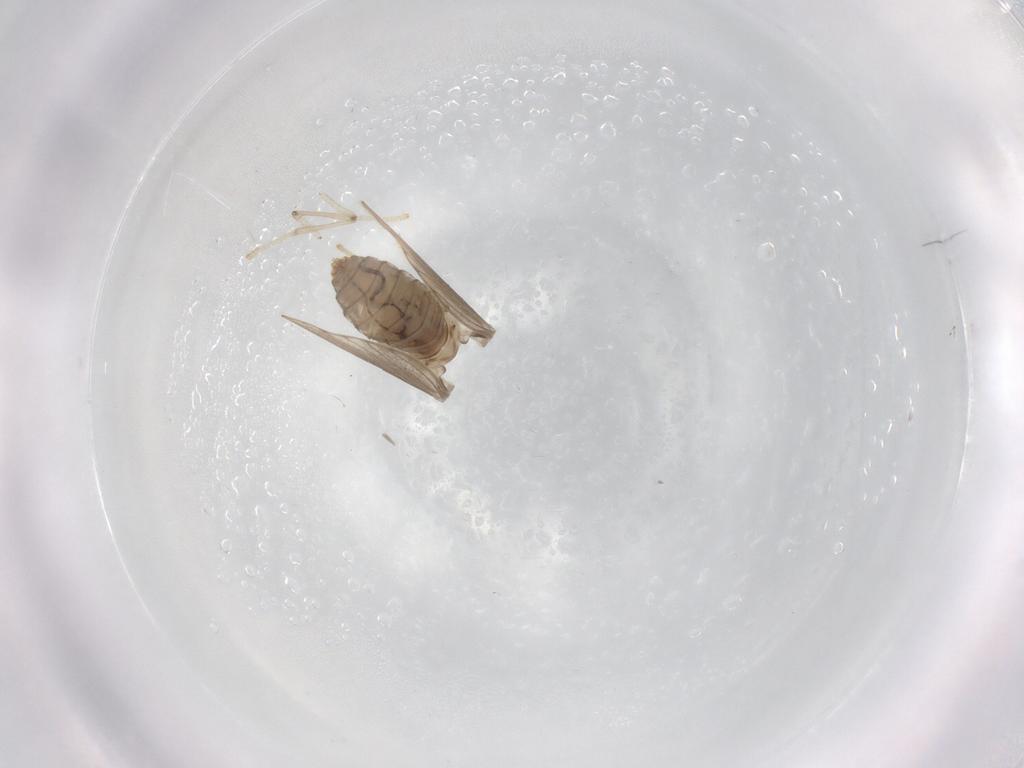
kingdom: Animalia
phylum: Arthropoda
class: Insecta
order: Diptera
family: Psychodidae
